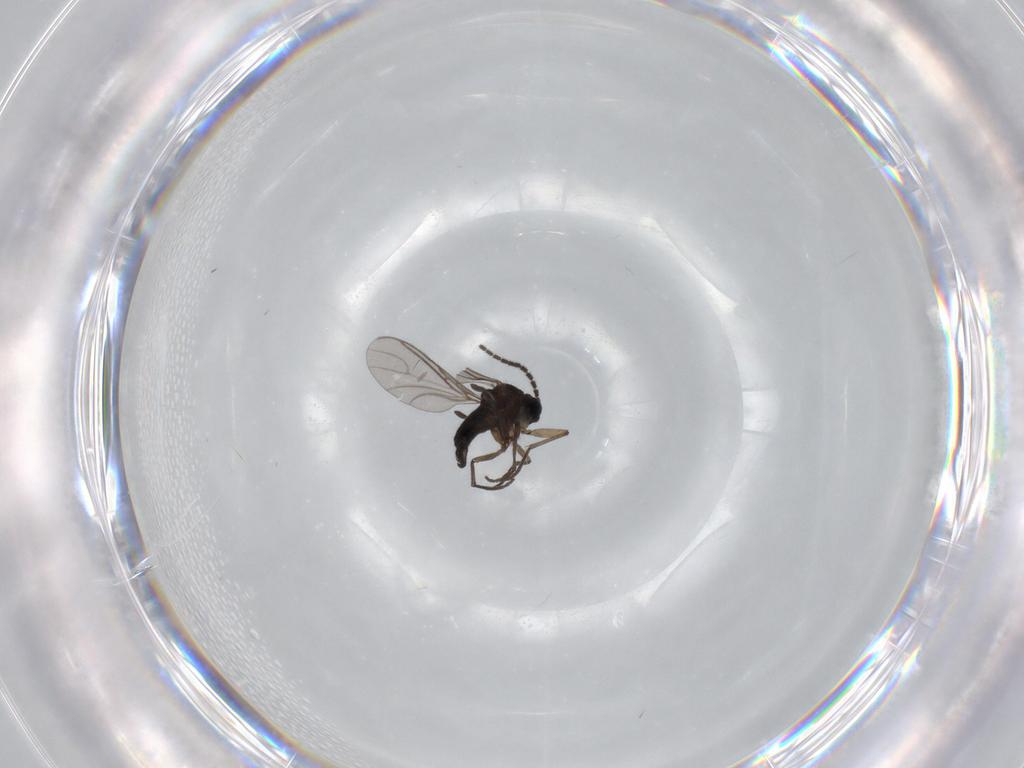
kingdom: Animalia
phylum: Arthropoda
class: Insecta
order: Diptera
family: Sciaridae
